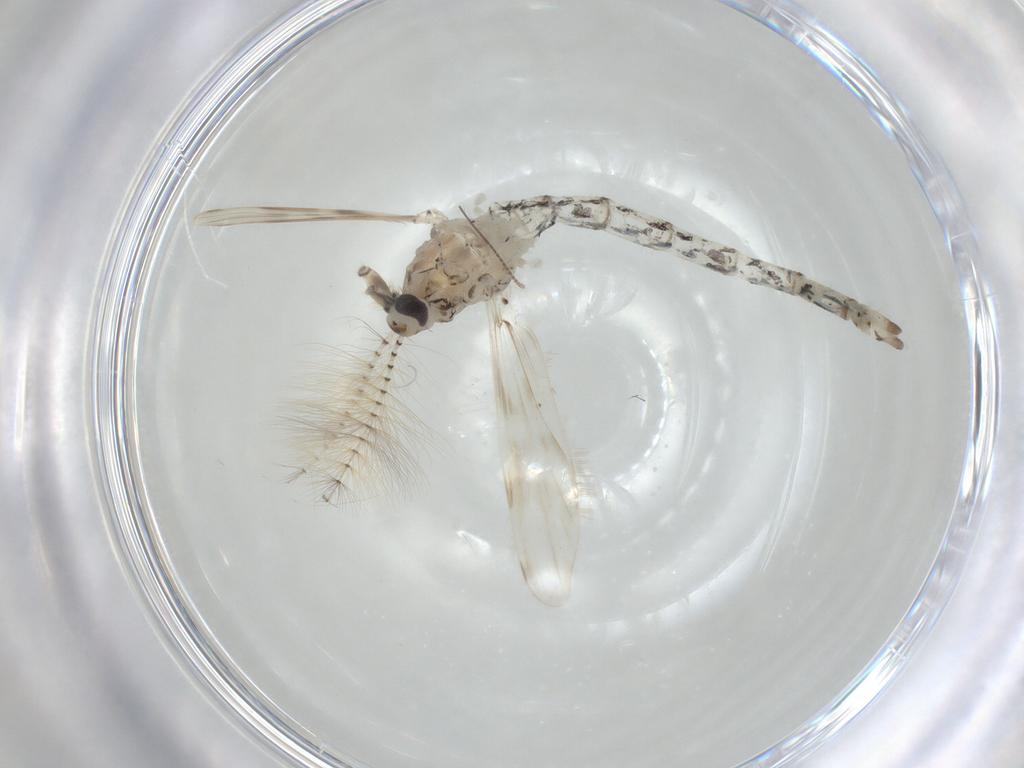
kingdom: Animalia
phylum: Arthropoda
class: Insecta
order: Diptera
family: Chaoboridae
